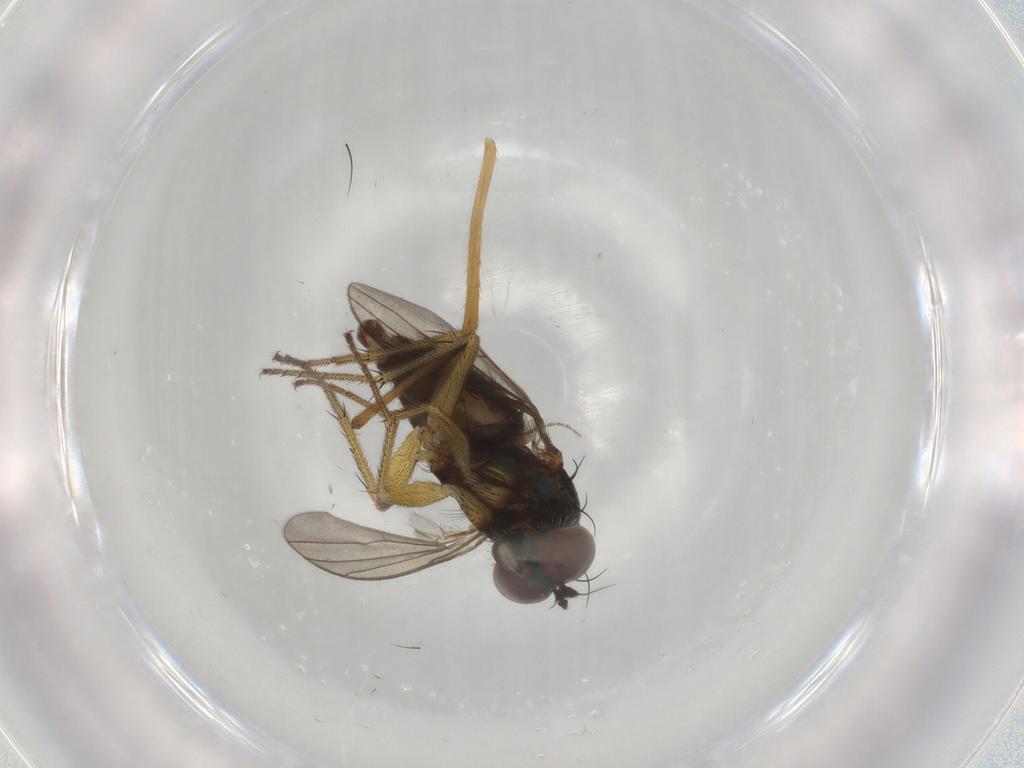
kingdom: Animalia
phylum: Arthropoda
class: Insecta
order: Diptera
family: Dolichopodidae
